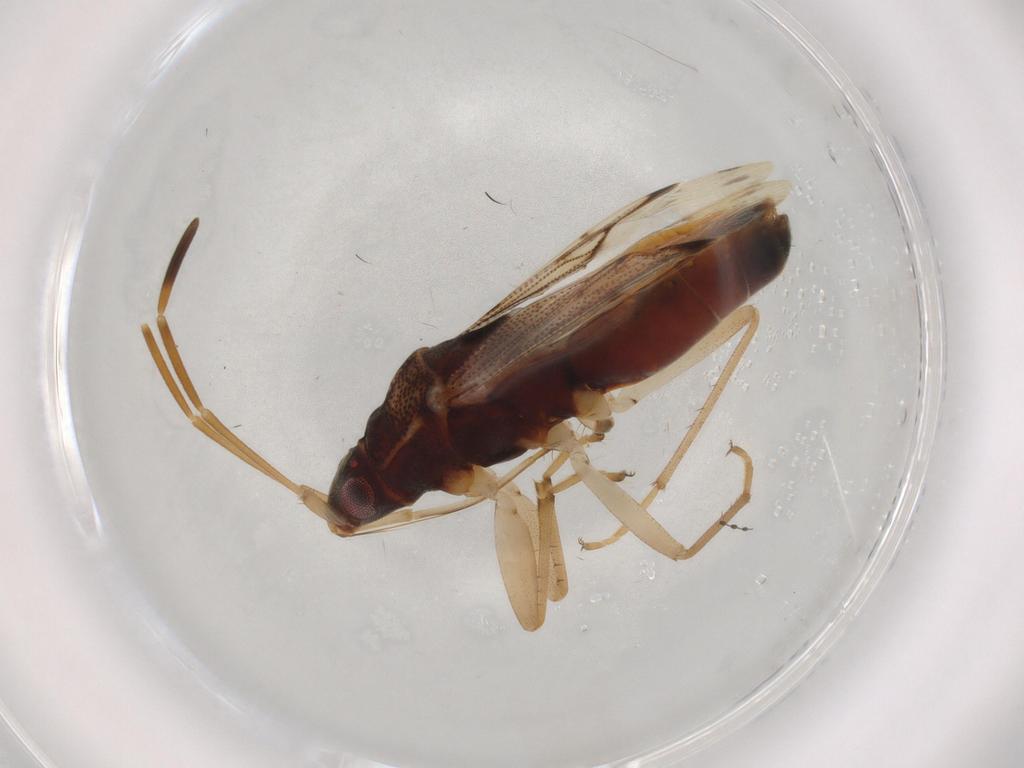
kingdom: Animalia
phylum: Arthropoda
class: Insecta
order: Hemiptera
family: Rhyparochromidae
